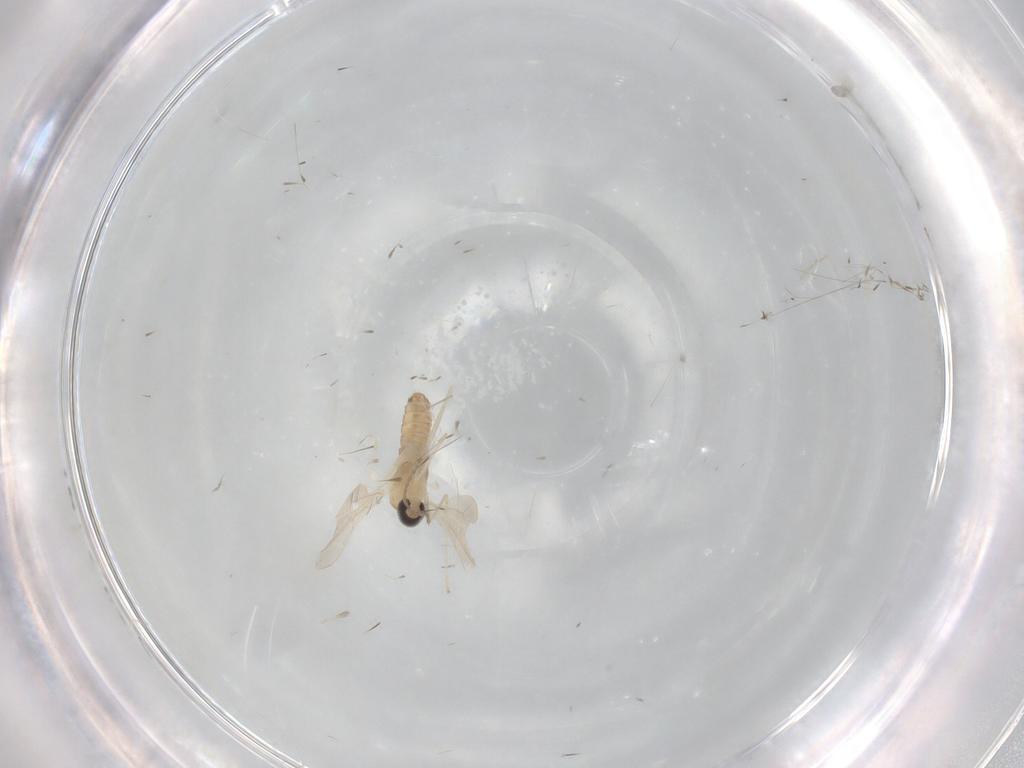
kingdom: Animalia
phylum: Arthropoda
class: Insecta
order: Diptera
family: Cecidomyiidae
